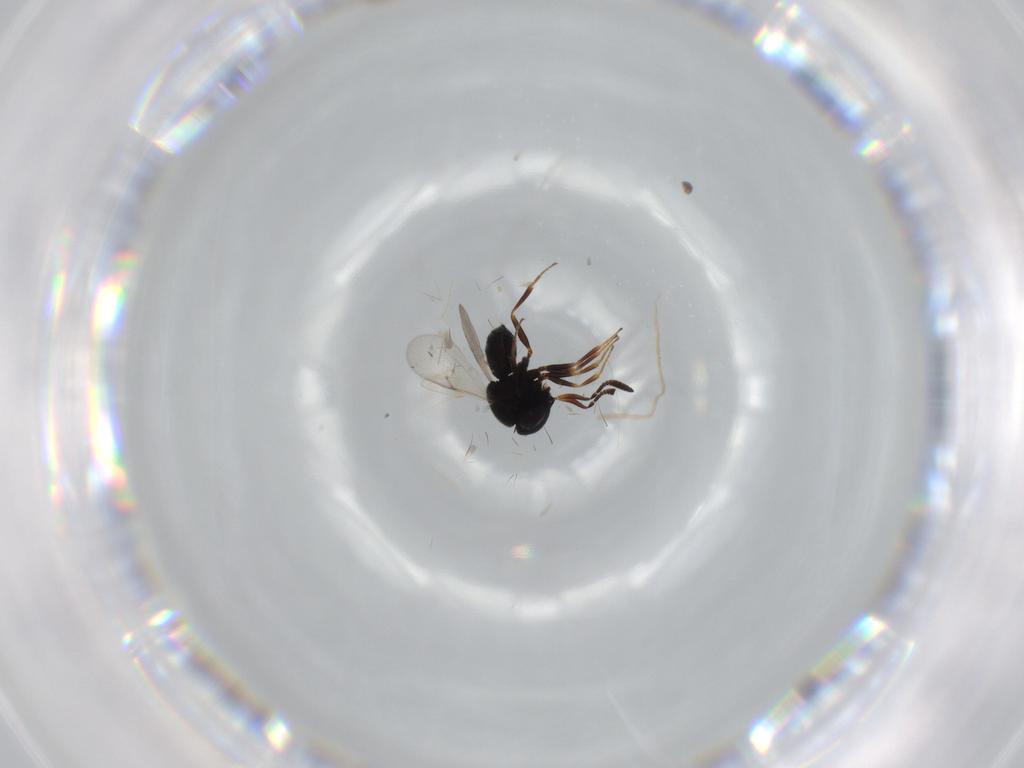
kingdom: Animalia
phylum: Arthropoda
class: Insecta
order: Hymenoptera
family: Scelionidae
